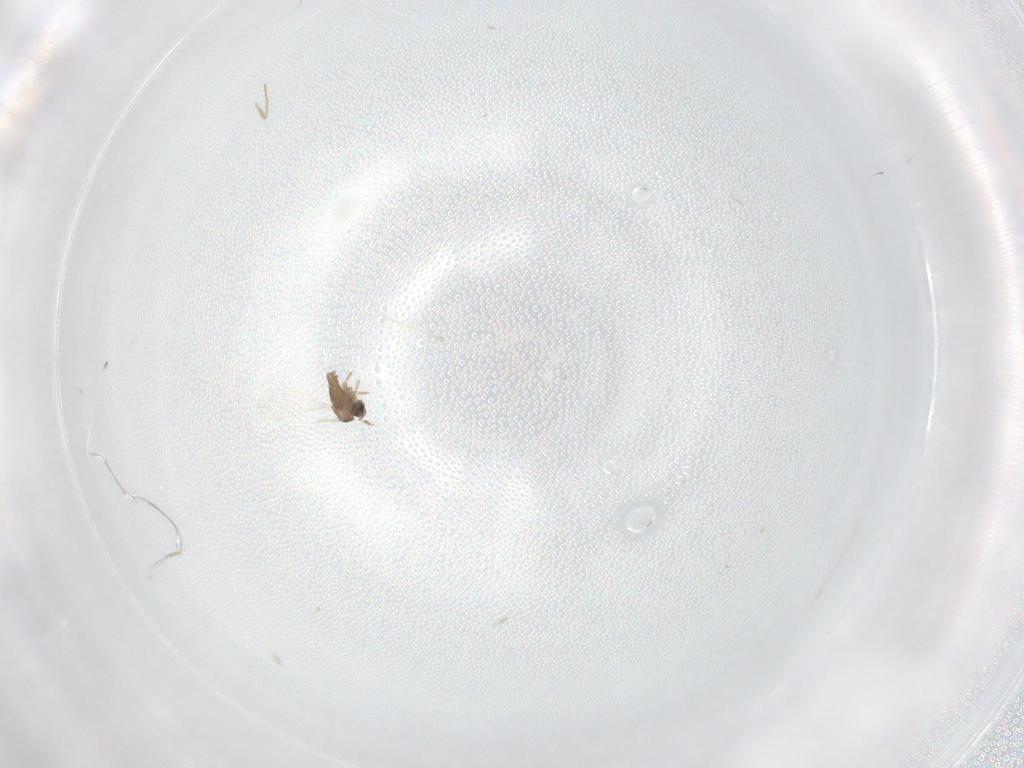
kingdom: Animalia
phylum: Arthropoda
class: Insecta
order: Diptera
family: Cecidomyiidae
